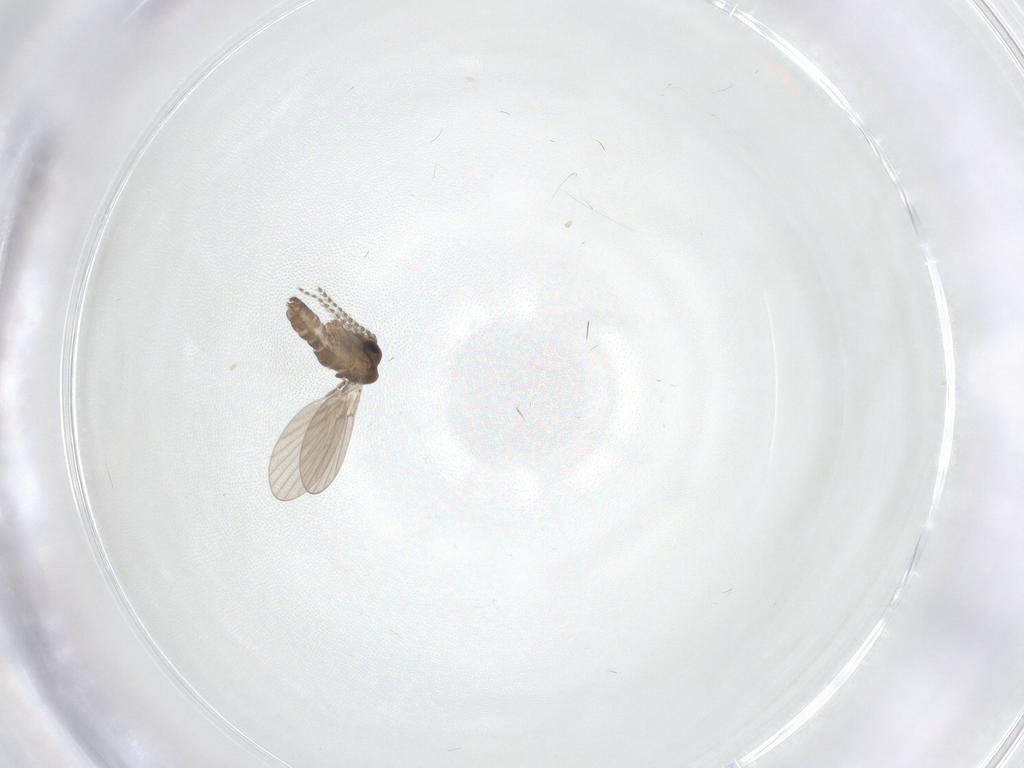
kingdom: Animalia
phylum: Arthropoda
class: Insecta
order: Diptera
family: Psychodidae
